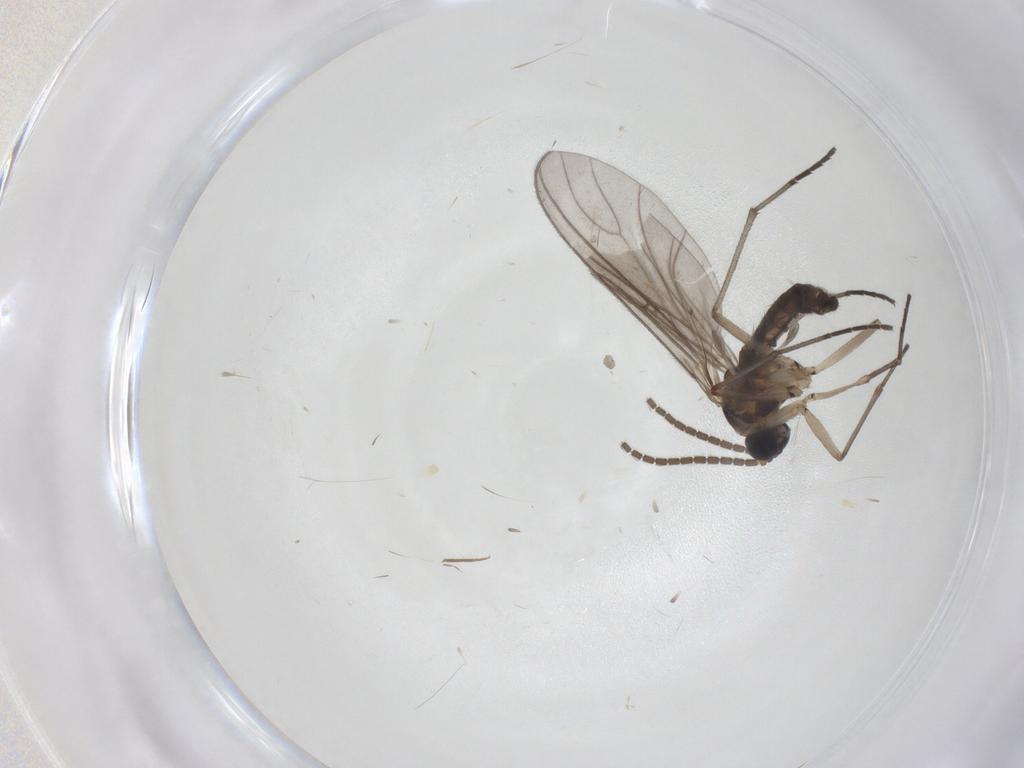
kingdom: Animalia
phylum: Arthropoda
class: Insecta
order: Diptera
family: Sciaridae
